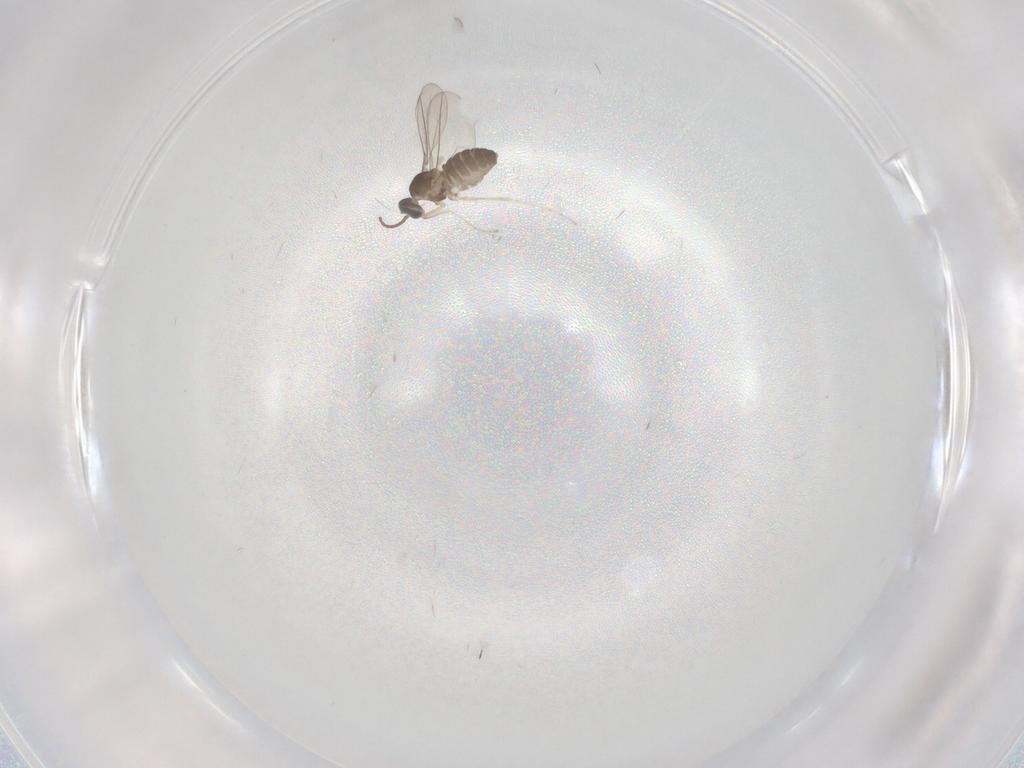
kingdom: Animalia
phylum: Arthropoda
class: Insecta
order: Diptera
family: Cecidomyiidae
